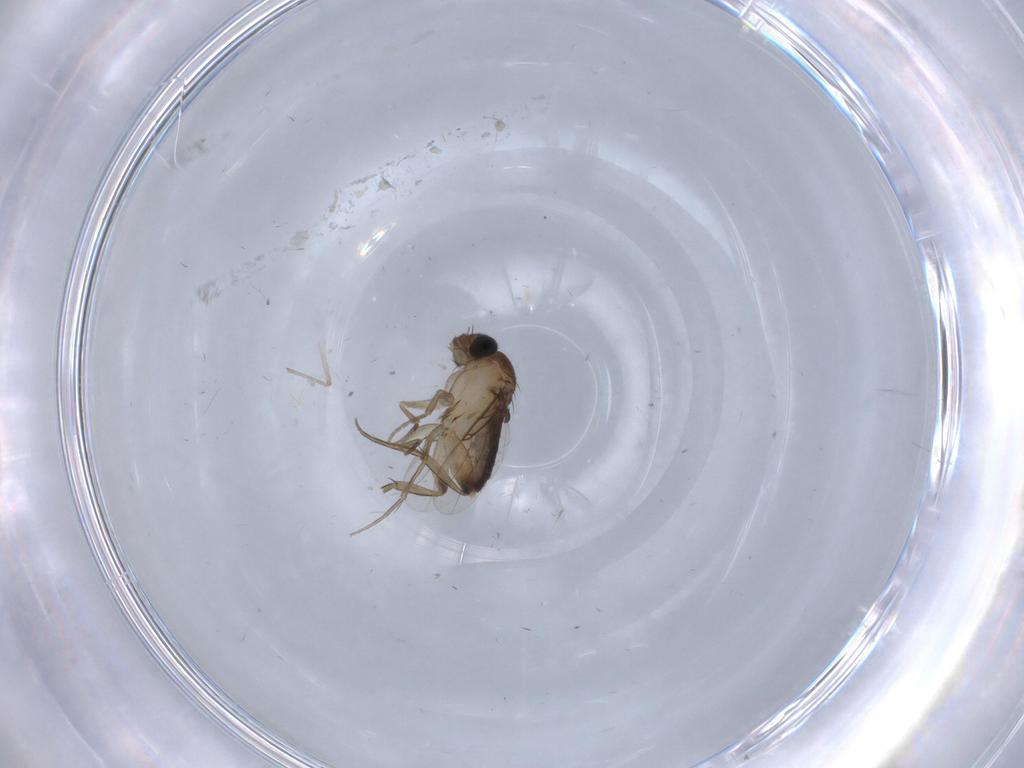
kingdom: Animalia
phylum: Arthropoda
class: Insecta
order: Diptera
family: Phoridae
